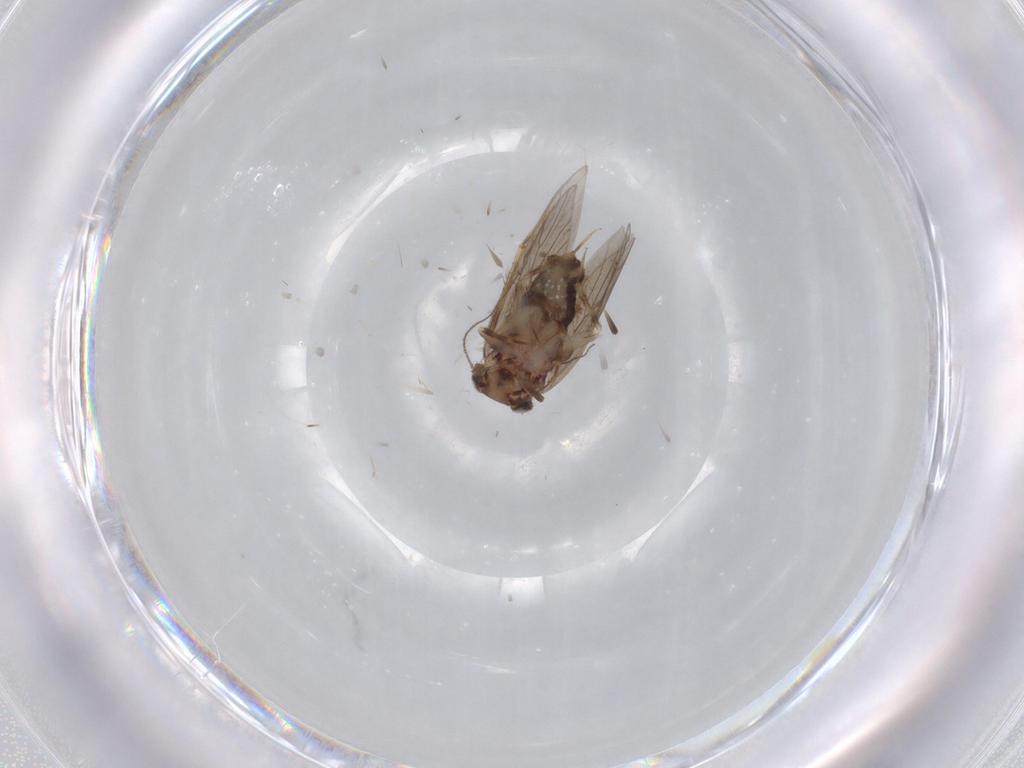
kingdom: Animalia
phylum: Arthropoda
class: Insecta
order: Psocodea
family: Lepidopsocidae
